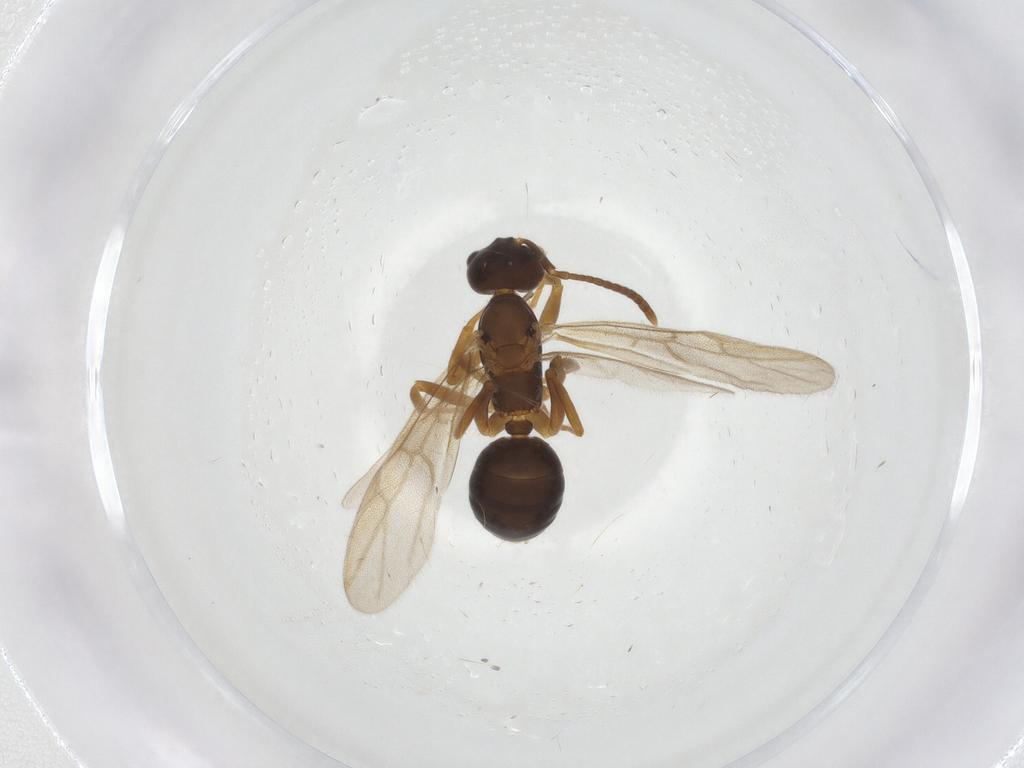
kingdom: Animalia
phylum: Arthropoda
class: Insecta
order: Diptera
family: Sciaridae
